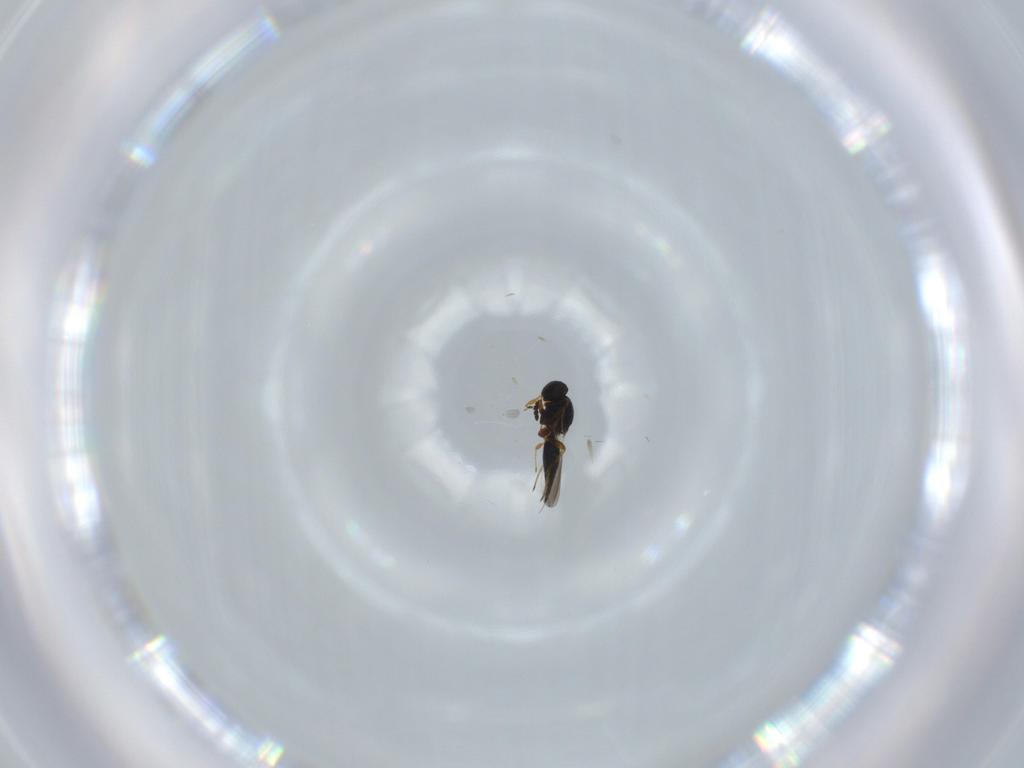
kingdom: Animalia
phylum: Arthropoda
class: Insecta
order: Hymenoptera
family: Platygastridae
